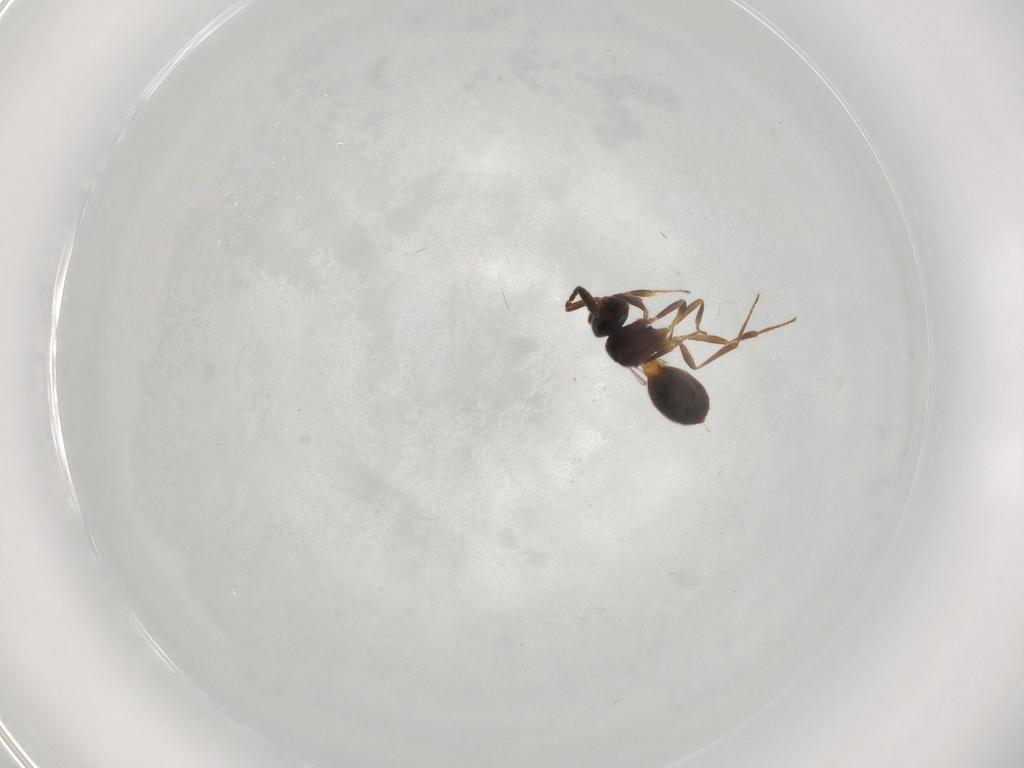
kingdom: Animalia
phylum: Arthropoda
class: Insecta
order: Hymenoptera
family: Scelionidae
